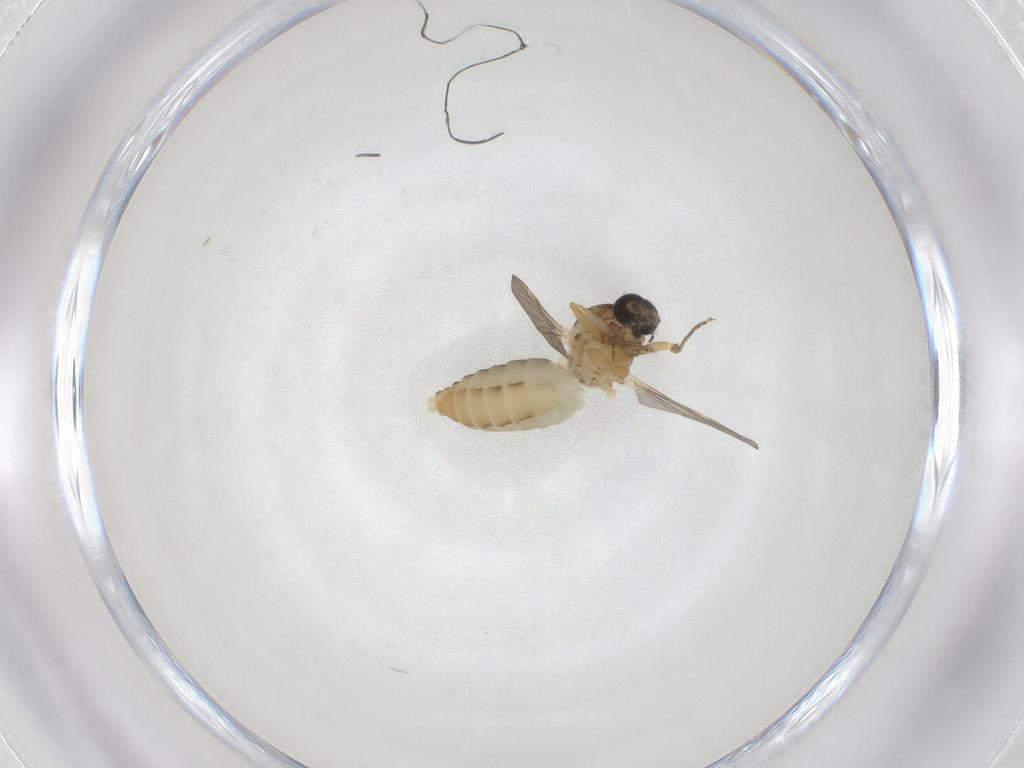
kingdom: Animalia
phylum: Arthropoda
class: Insecta
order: Diptera
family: Ceratopogonidae
